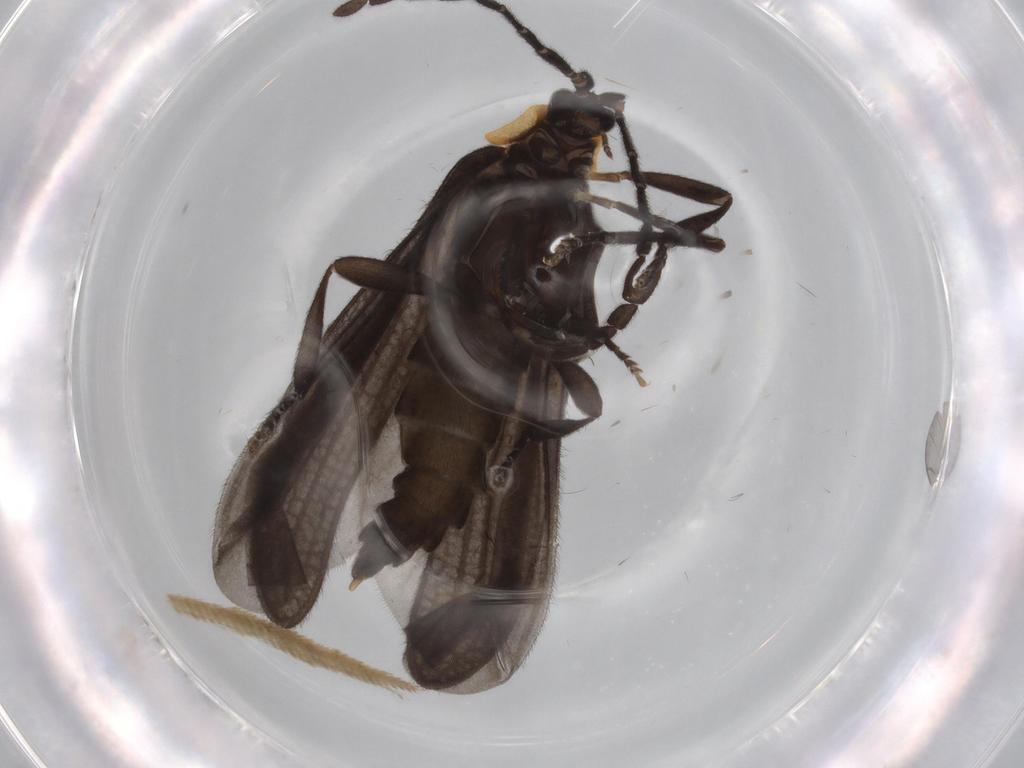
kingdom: Animalia
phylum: Arthropoda
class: Insecta
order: Coleoptera
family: Lycidae
